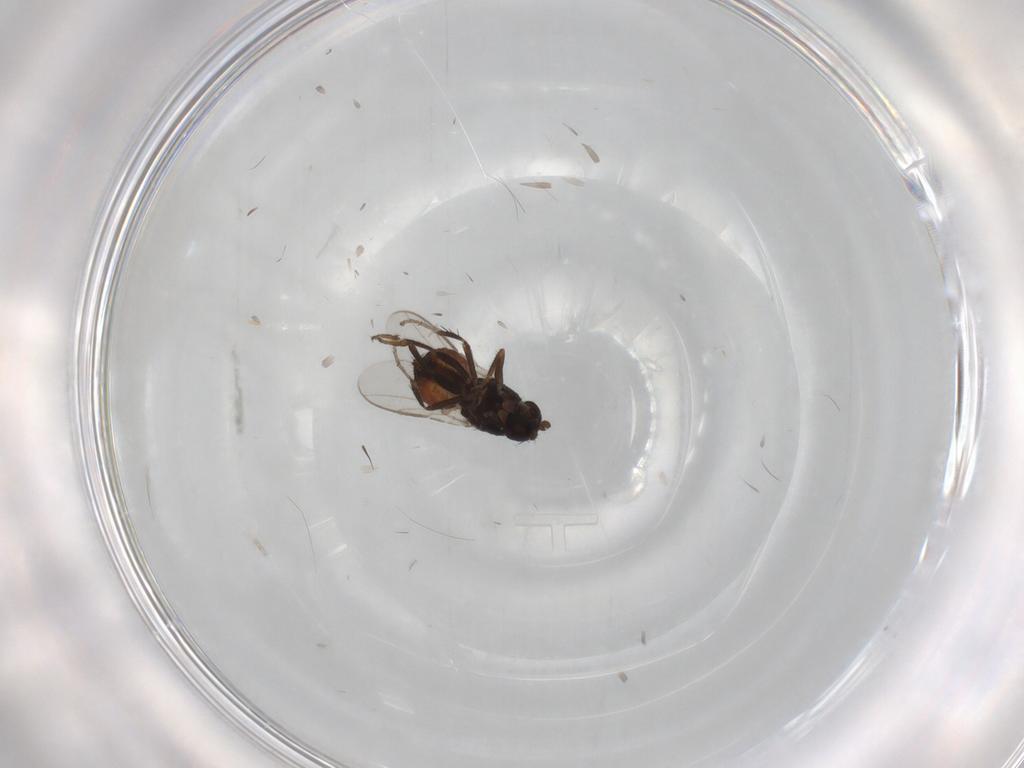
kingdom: Animalia
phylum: Arthropoda
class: Insecta
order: Diptera
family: Sphaeroceridae
